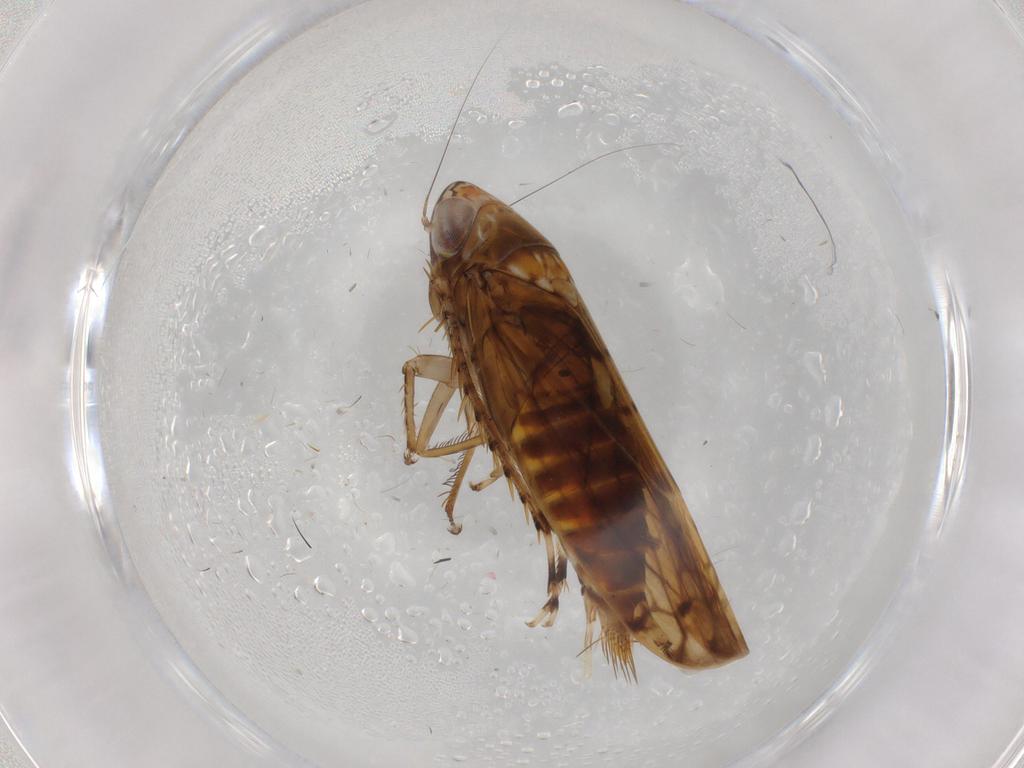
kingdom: Animalia
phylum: Arthropoda
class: Insecta
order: Hemiptera
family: Cicadellidae
